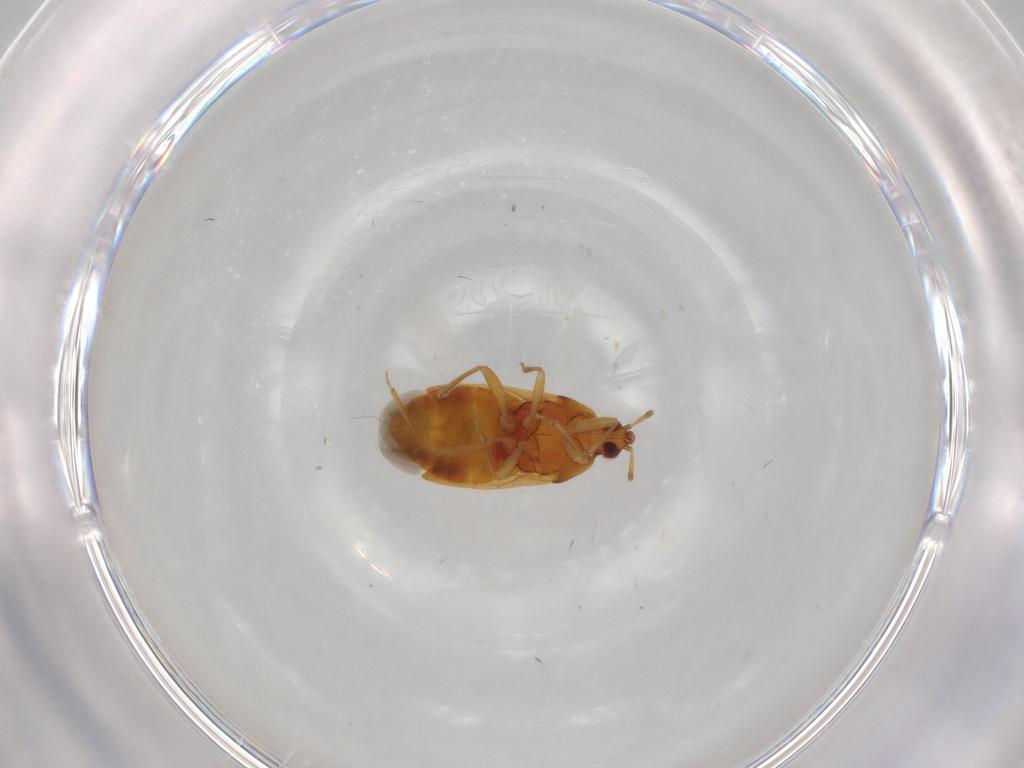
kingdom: Animalia
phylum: Arthropoda
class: Insecta
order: Hemiptera
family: Anthocoridae
